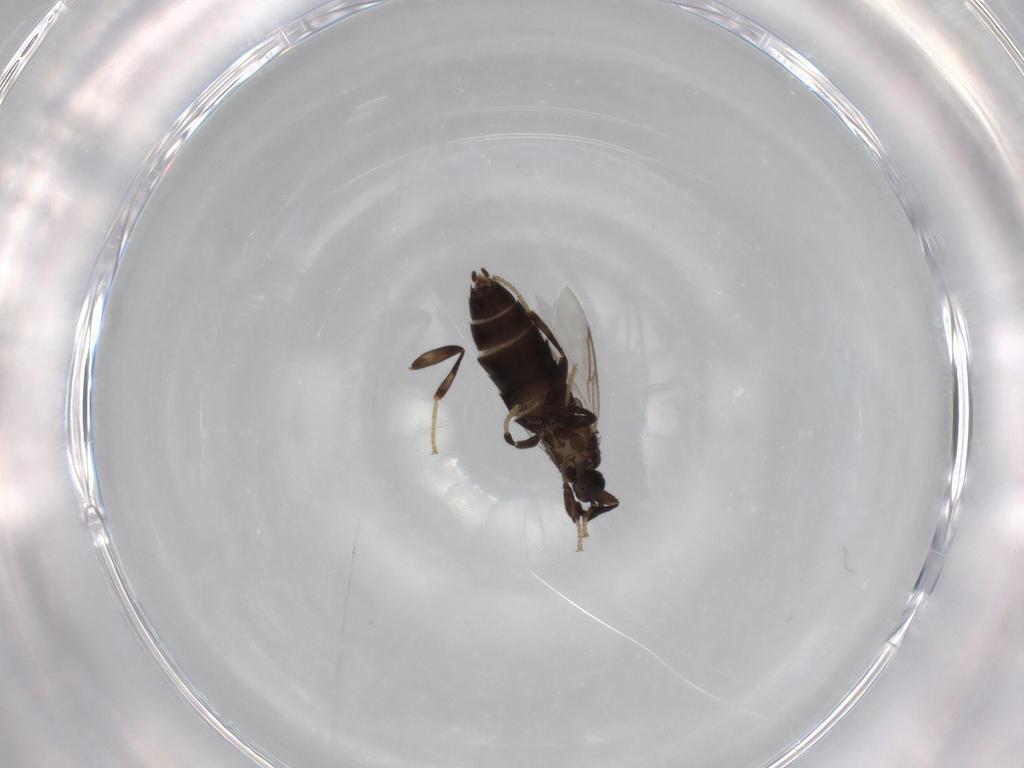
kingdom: Animalia
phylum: Arthropoda
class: Insecta
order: Diptera
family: Scatopsidae
